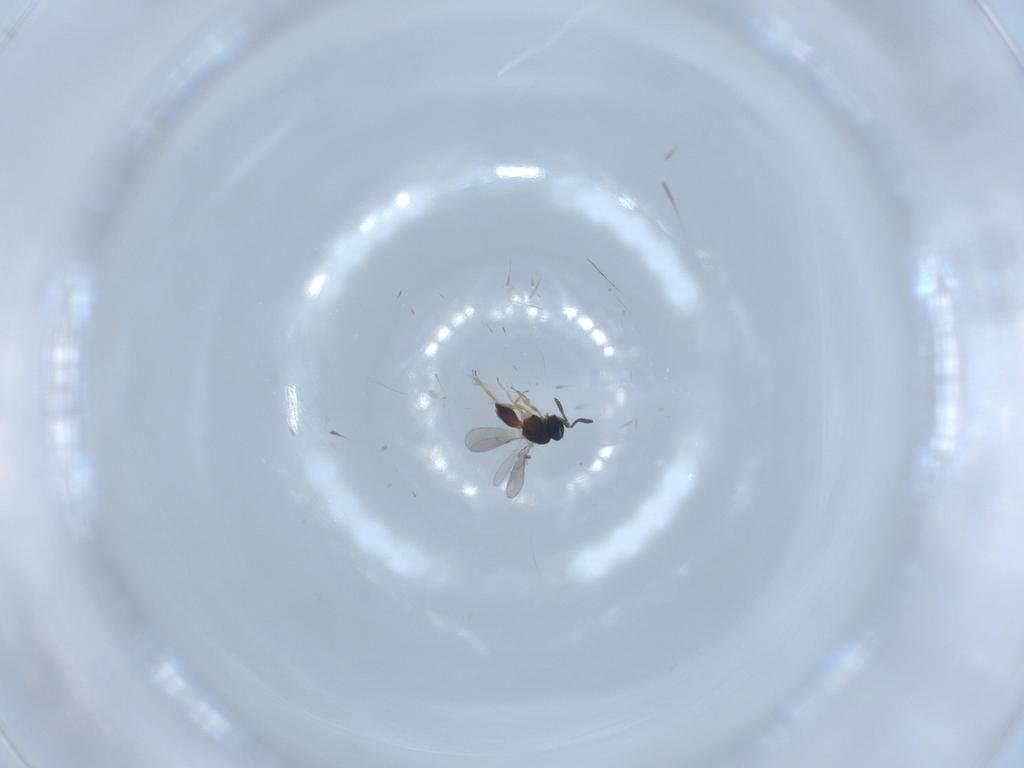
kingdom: Animalia
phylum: Arthropoda
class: Insecta
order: Hymenoptera
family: Scelionidae
